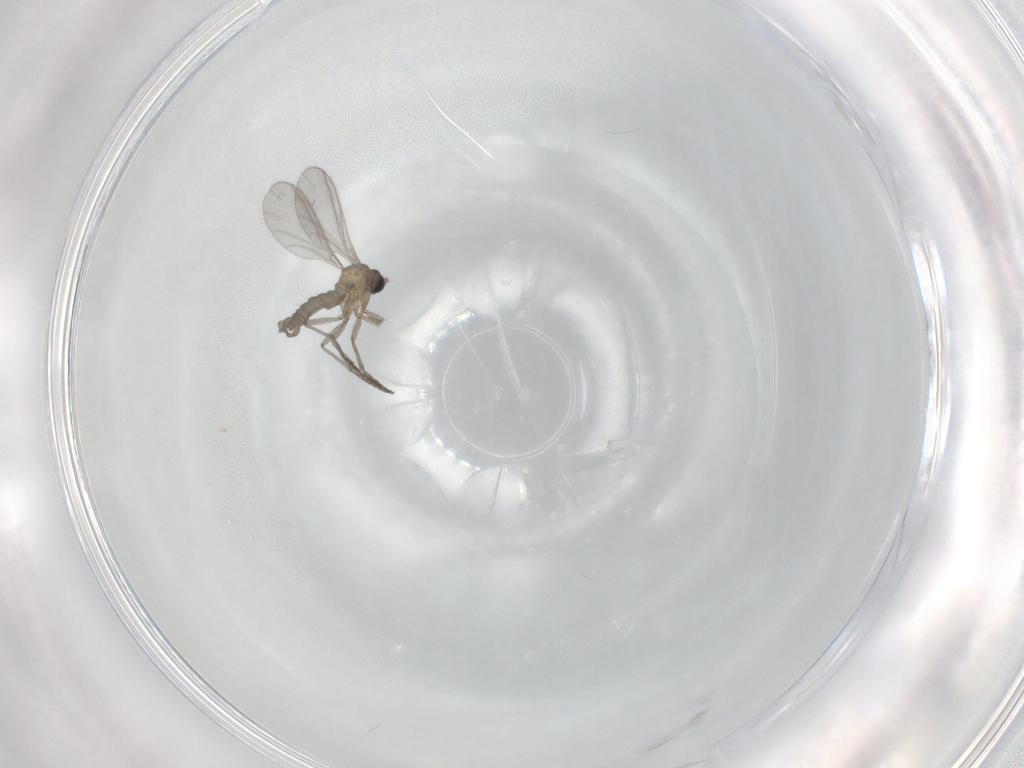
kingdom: Animalia
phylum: Arthropoda
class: Insecta
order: Diptera
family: Sciaridae
